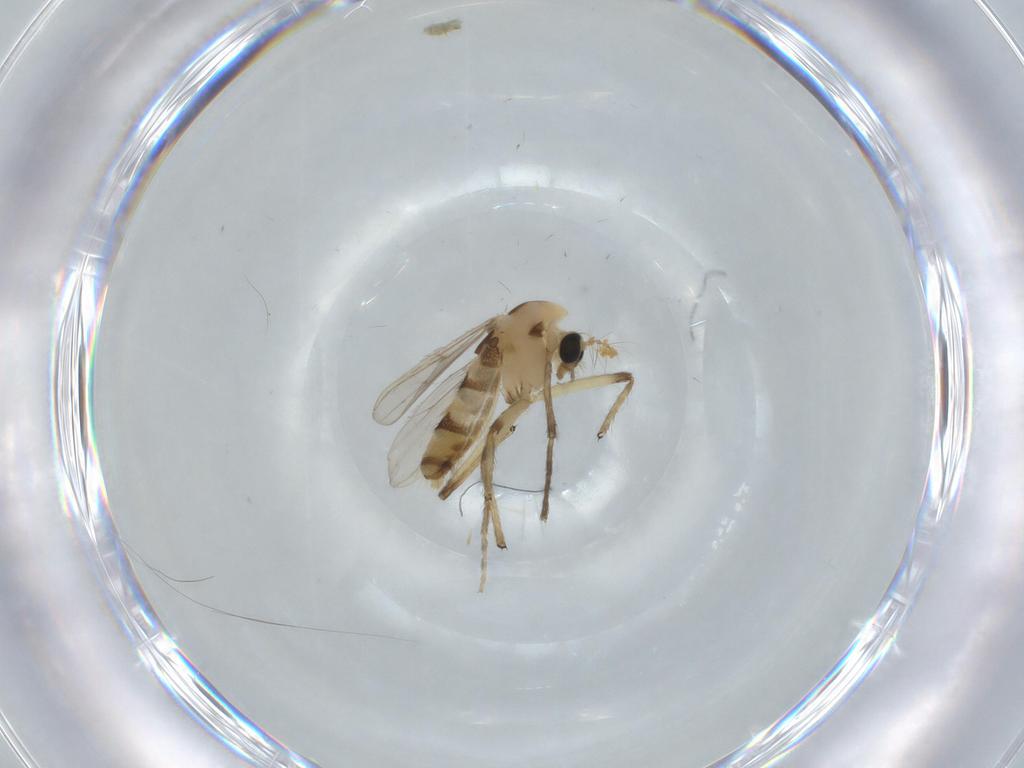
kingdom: Animalia
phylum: Arthropoda
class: Insecta
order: Diptera
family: Chironomidae
